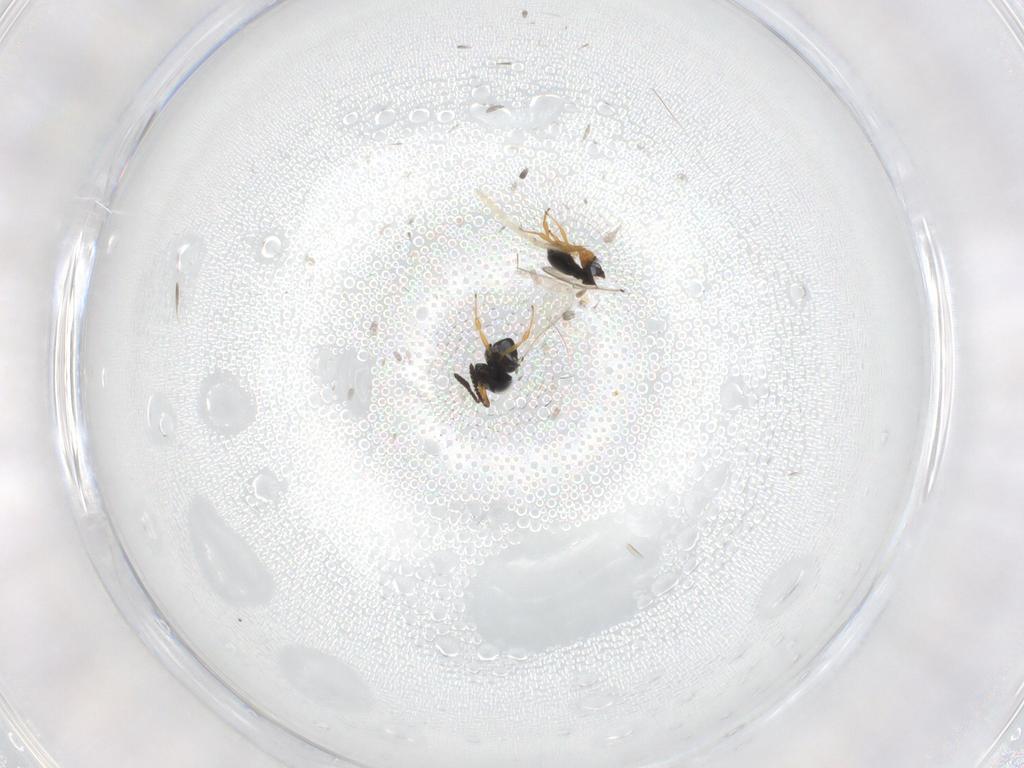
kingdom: Animalia
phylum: Arthropoda
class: Insecta
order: Hymenoptera
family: Scelionidae
